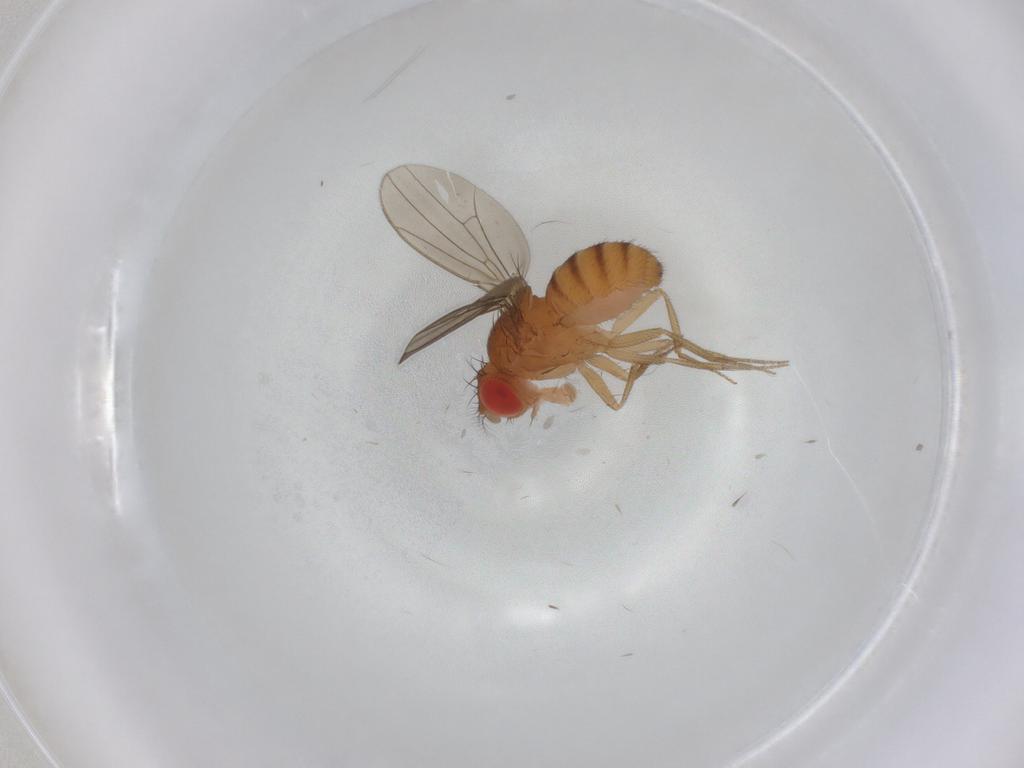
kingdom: Animalia
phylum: Arthropoda
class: Insecta
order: Diptera
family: Drosophilidae
